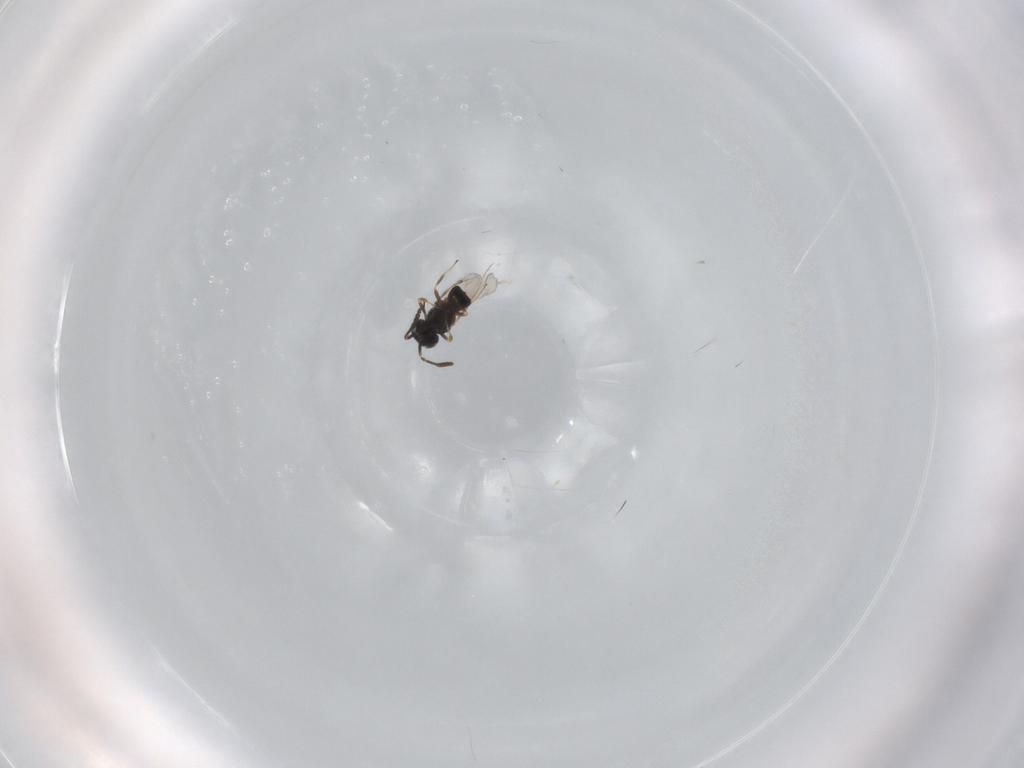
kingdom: Animalia
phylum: Arthropoda
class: Insecta
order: Hymenoptera
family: Scelionidae
